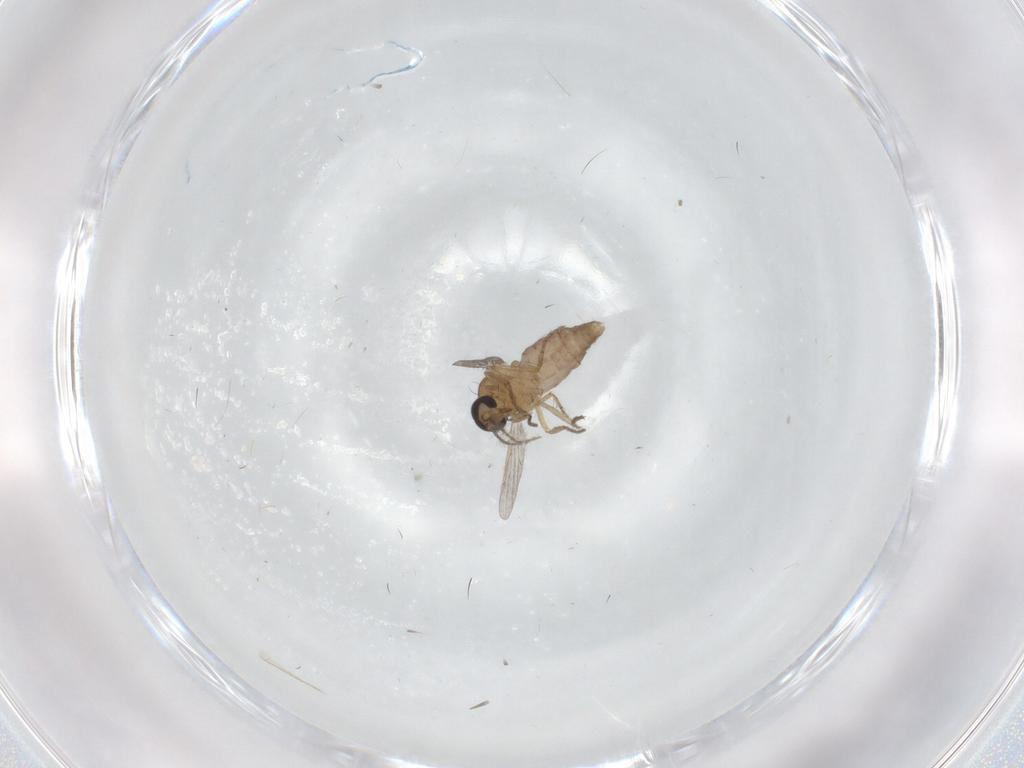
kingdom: Animalia
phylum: Arthropoda
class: Insecta
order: Diptera
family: Ceratopogonidae
